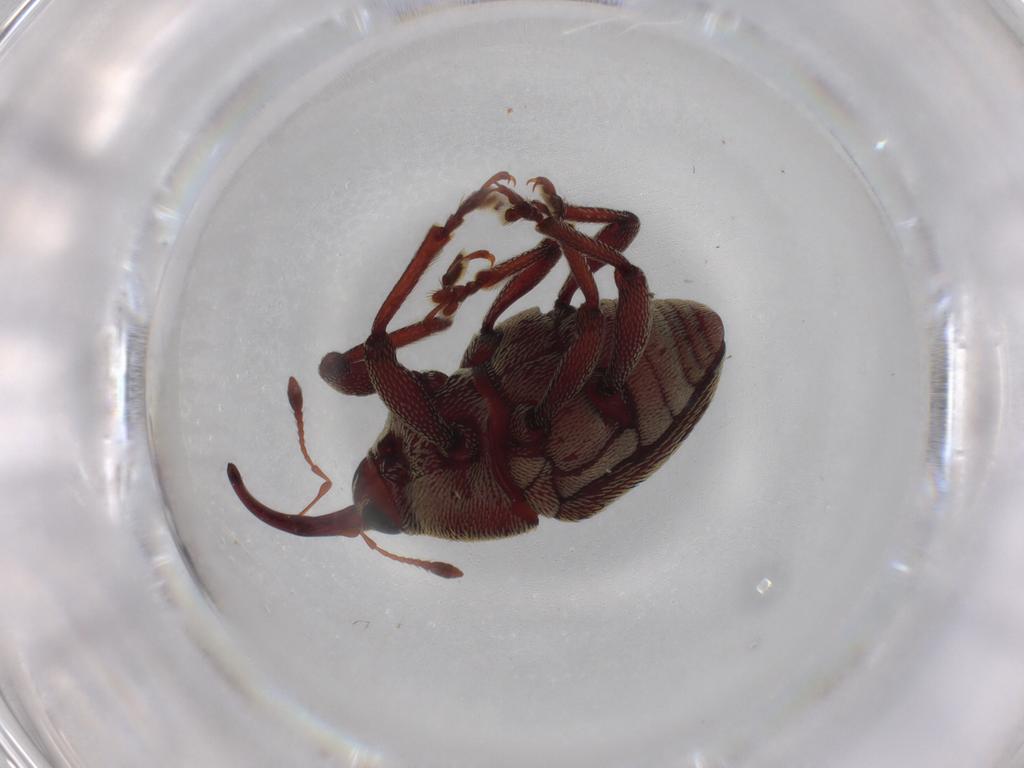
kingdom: Animalia
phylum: Arthropoda
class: Insecta
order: Coleoptera
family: Curculionidae
